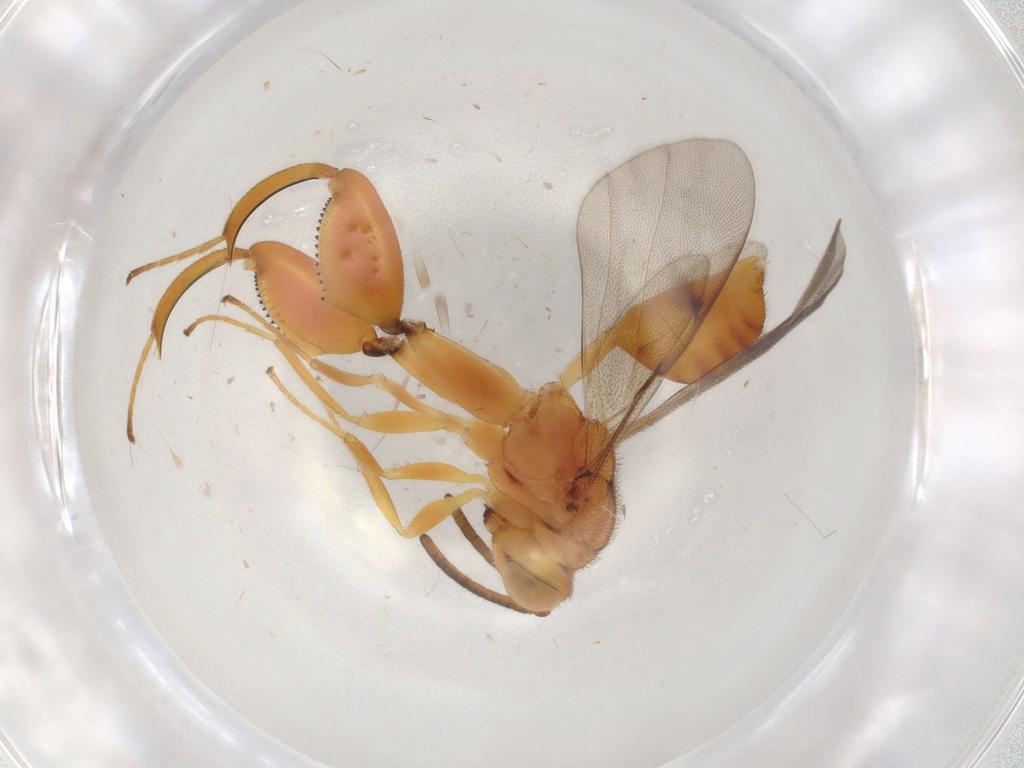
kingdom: Animalia
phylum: Arthropoda
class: Insecta
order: Hymenoptera
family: Chalcididae
